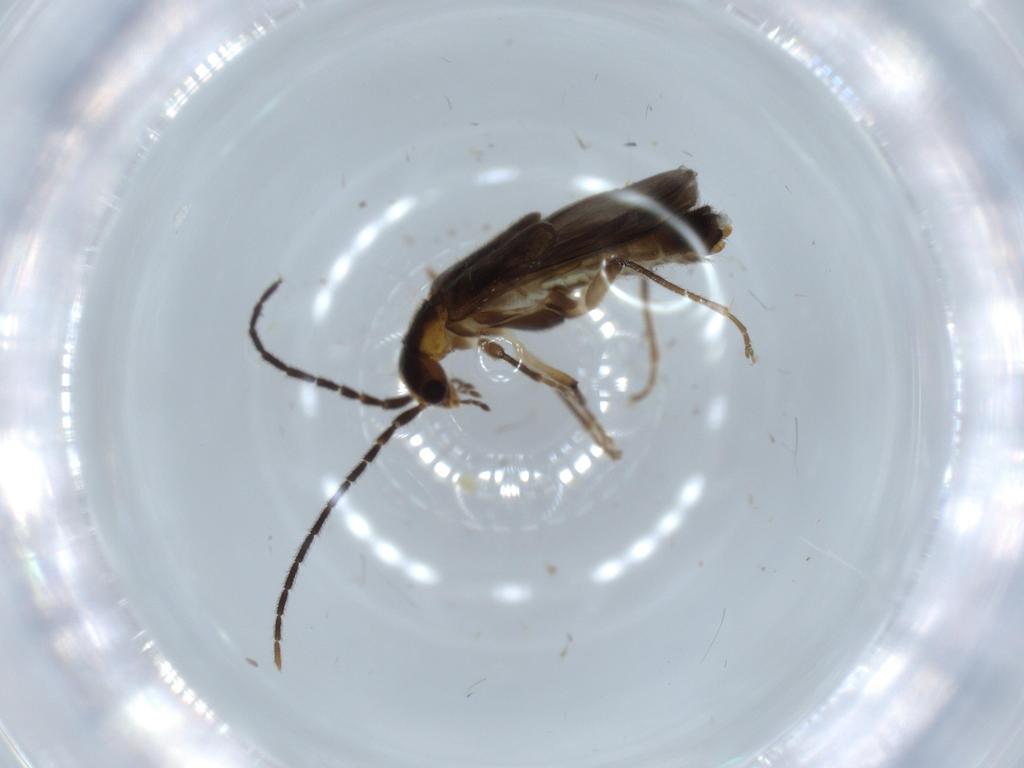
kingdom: Animalia
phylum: Arthropoda
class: Insecta
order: Coleoptera
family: Cantharidae
